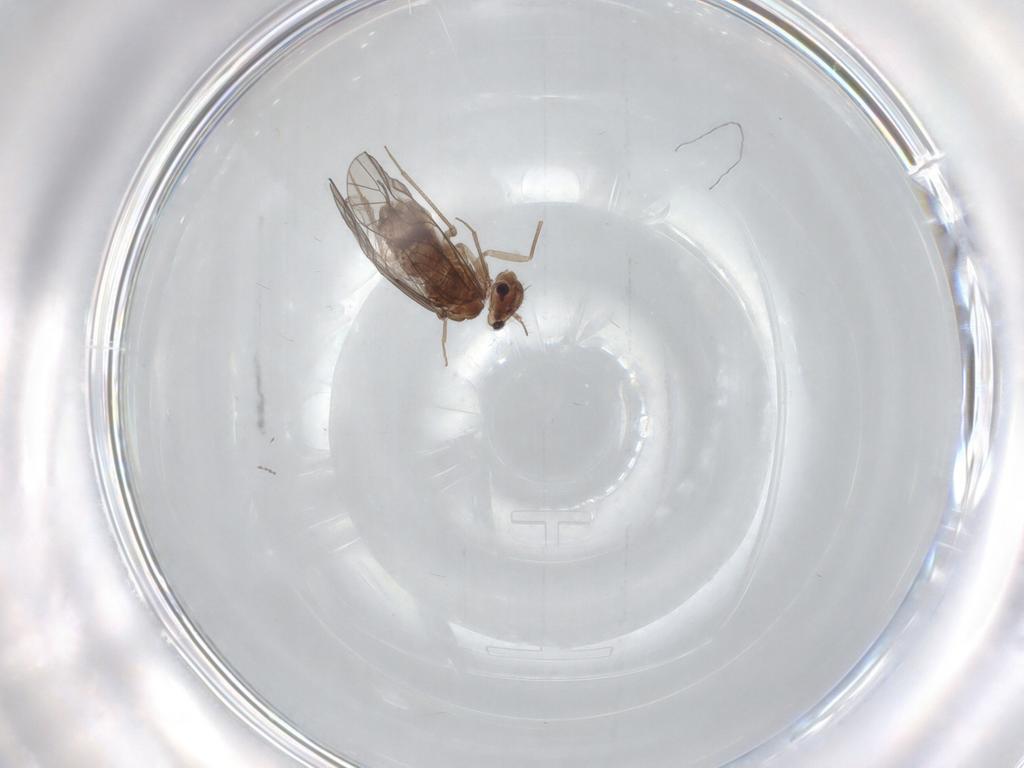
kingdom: Animalia
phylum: Arthropoda
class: Insecta
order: Psocodea
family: Lachesillidae
